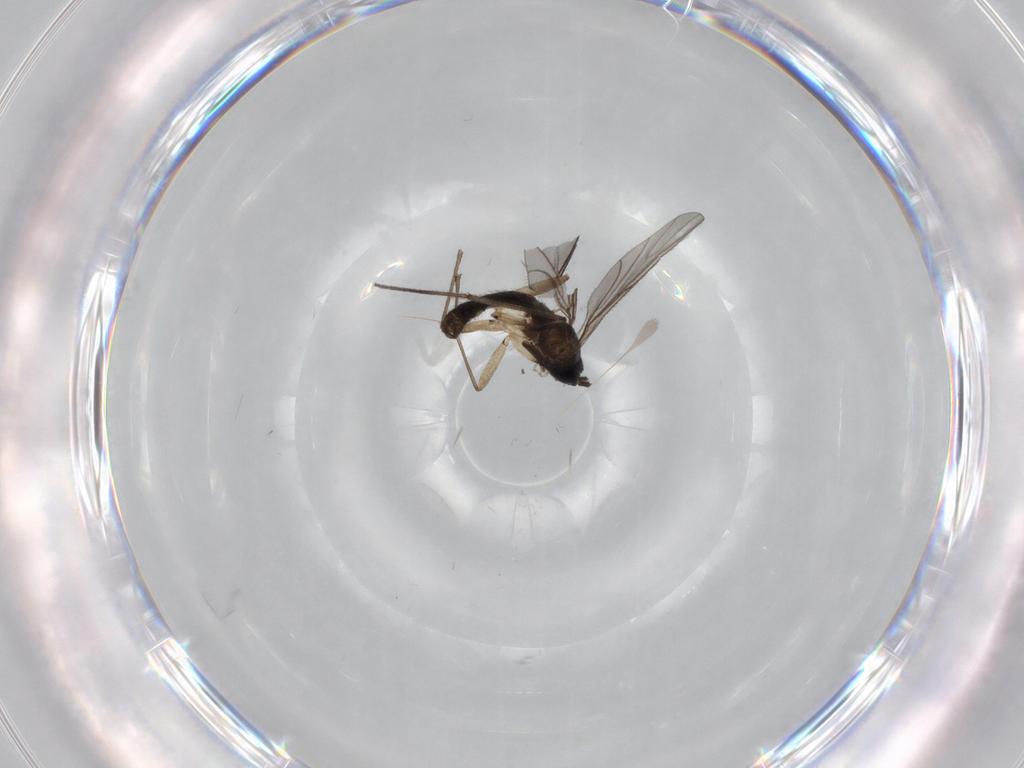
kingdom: Animalia
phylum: Arthropoda
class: Insecta
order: Diptera
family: Sciaridae
